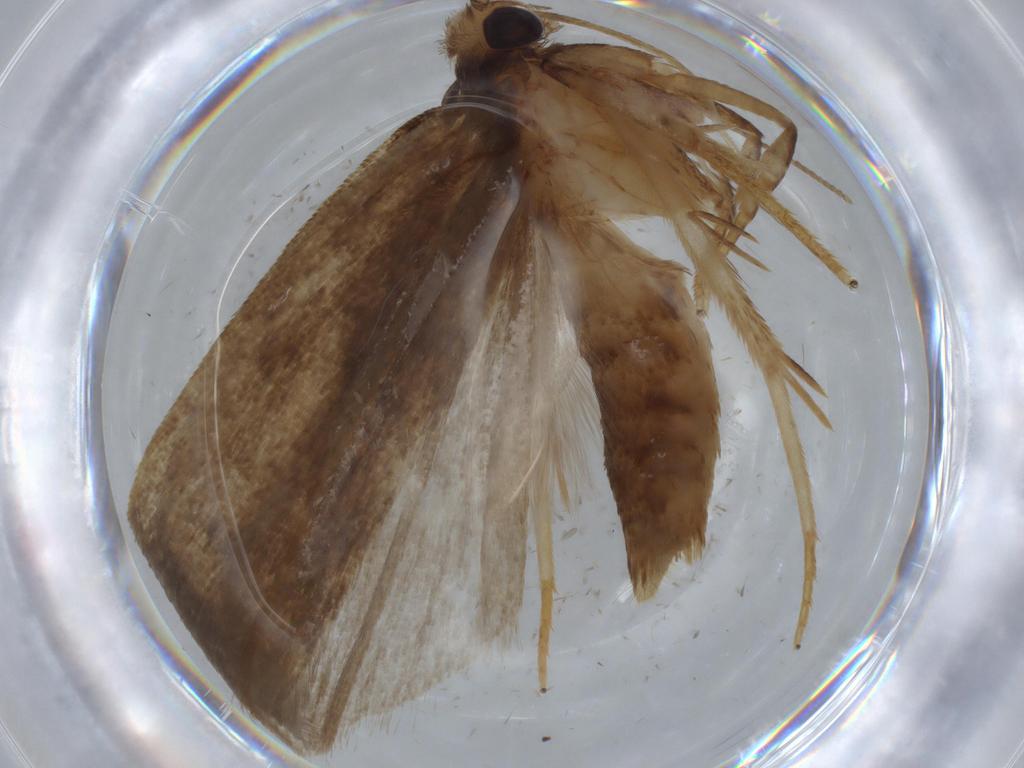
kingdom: Animalia
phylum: Arthropoda
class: Insecta
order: Lepidoptera
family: Autostichidae
